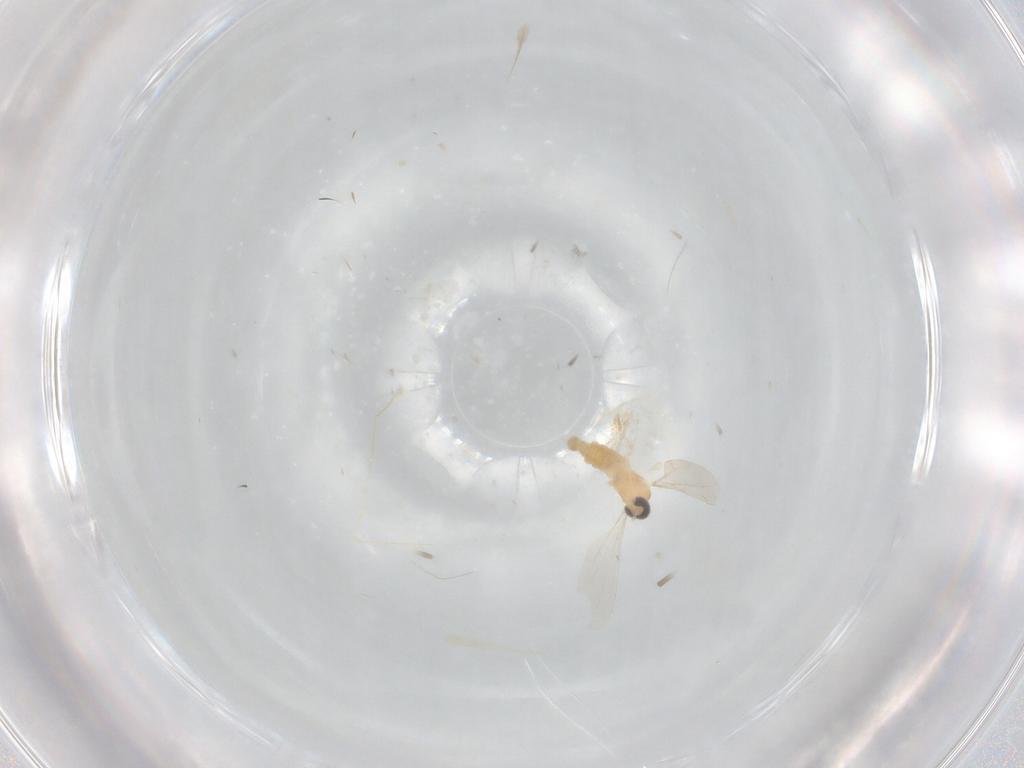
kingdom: Animalia
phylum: Arthropoda
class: Insecta
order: Diptera
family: Cecidomyiidae
